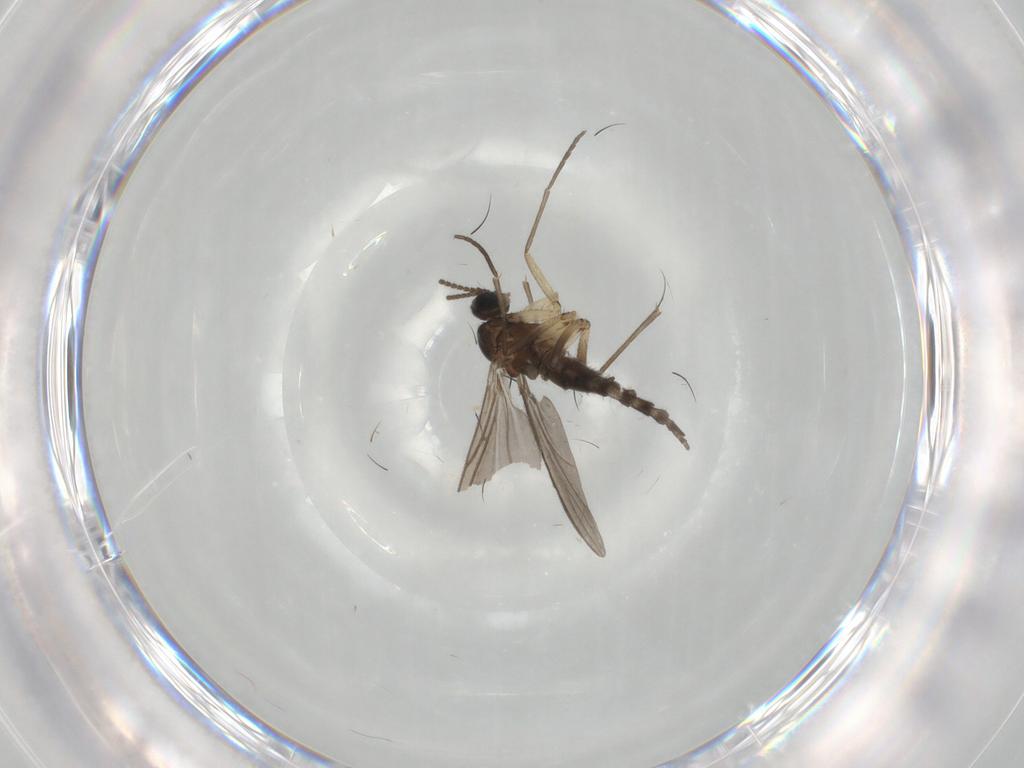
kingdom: Animalia
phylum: Arthropoda
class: Insecta
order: Diptera
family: Sciaridae
